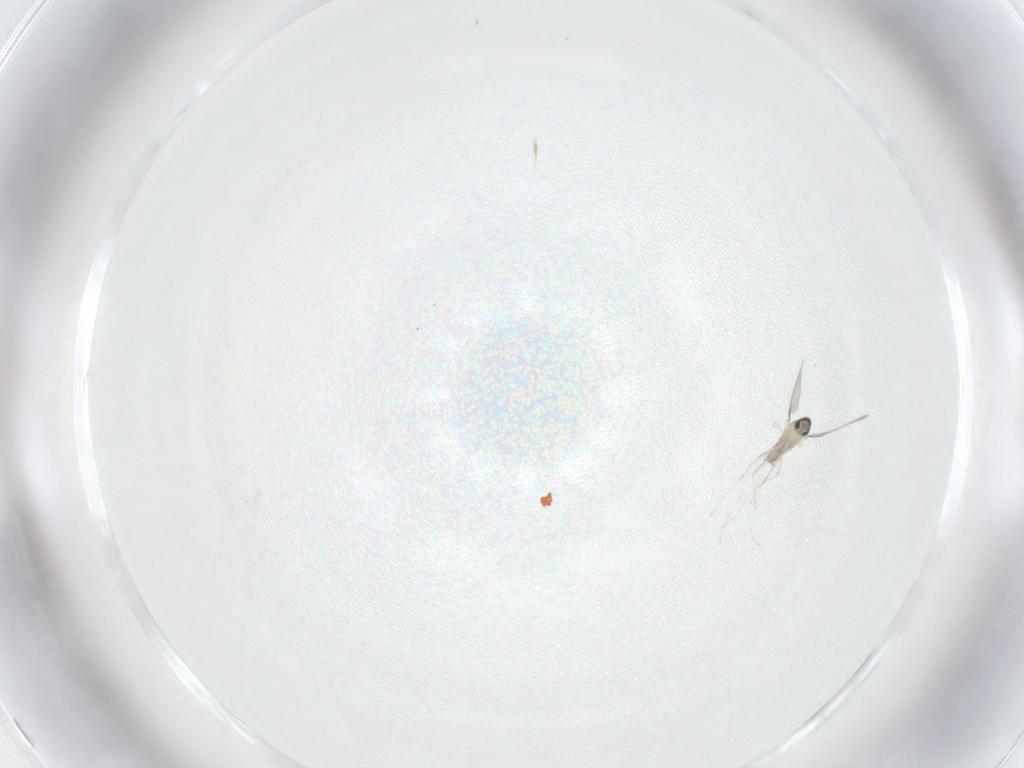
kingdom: Animalia
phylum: Arthropoda
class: Insecta
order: Diptera
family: Cecidomyiidae
